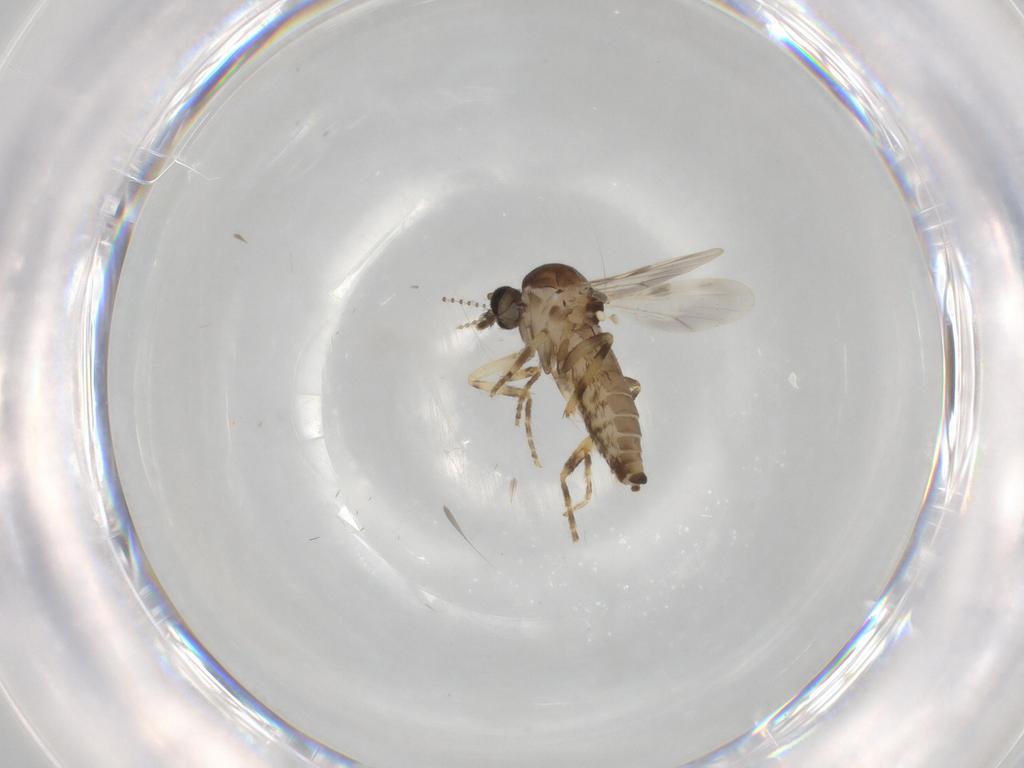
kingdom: Animalia
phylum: Arthropoda
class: Insecta
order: Diptera
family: Ceratopogonidae
